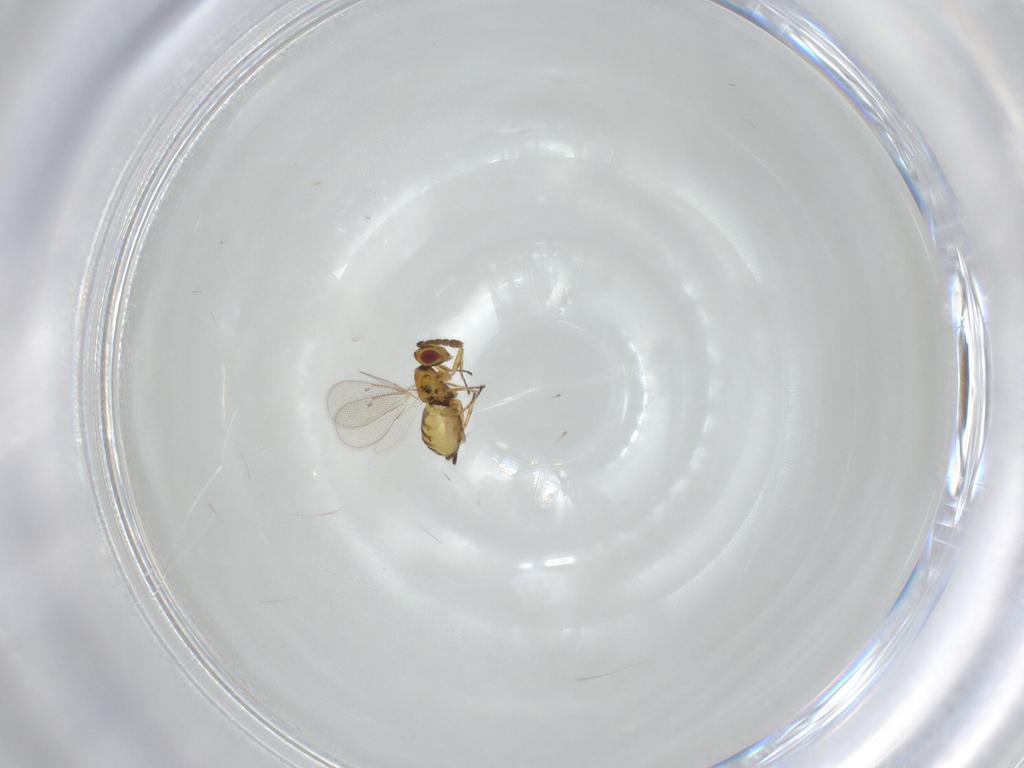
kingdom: Animalia
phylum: Arthropoda
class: Insecta
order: Hymenoptera
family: Eulophidae
